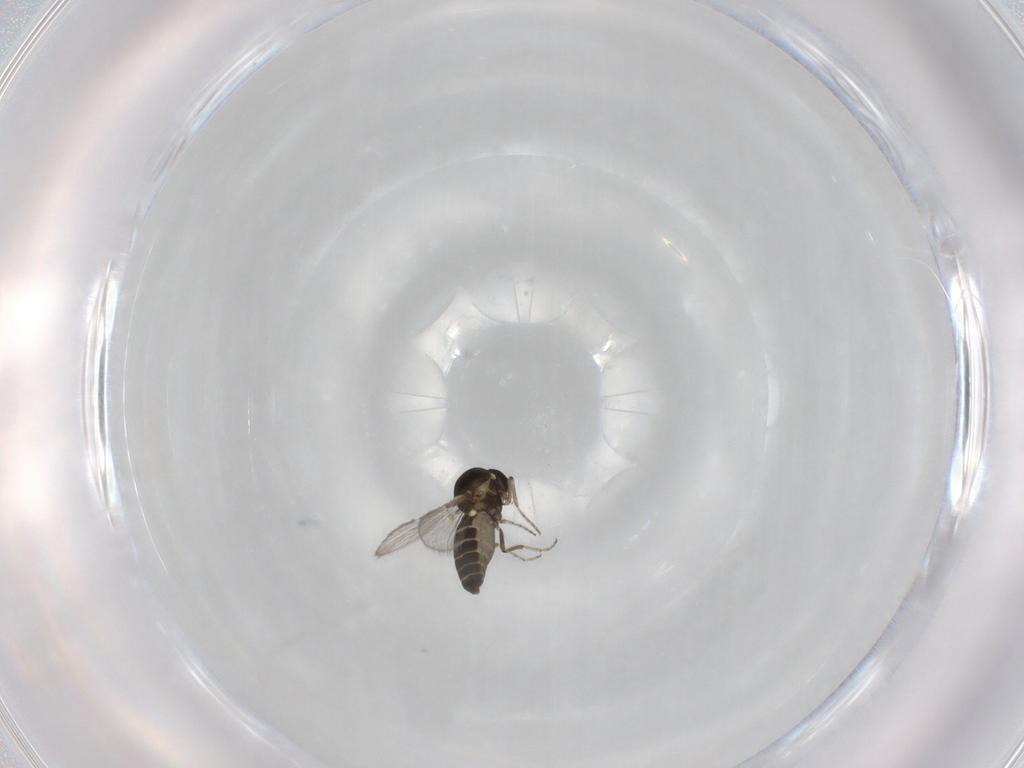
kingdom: Animalia
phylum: Arthropoda
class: Insecta
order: Diptera
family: Ceratopogonidae
